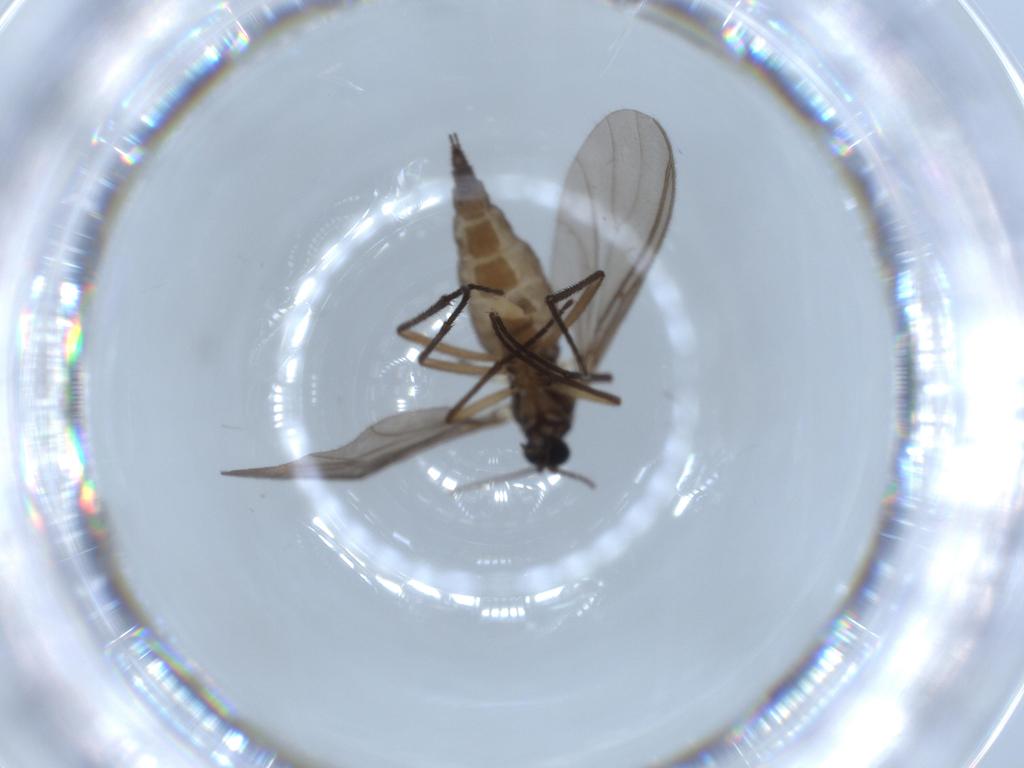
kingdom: Animalia
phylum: Arthropoda
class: Insecta
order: Diptera
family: Sciaridae
